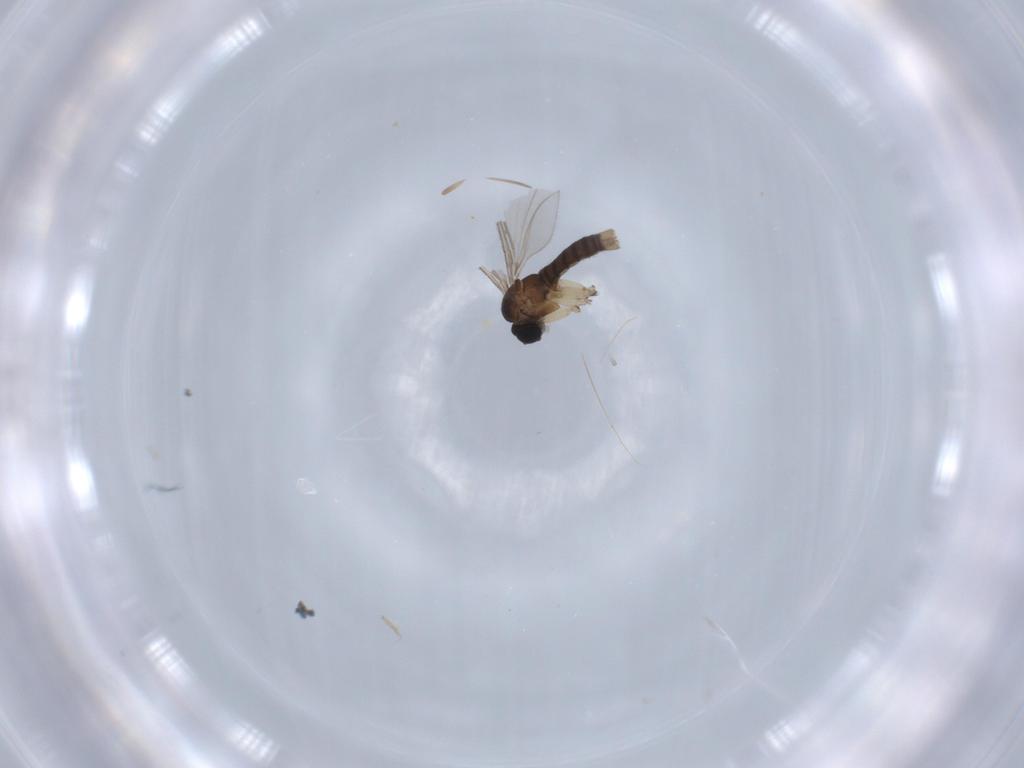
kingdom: Animalia
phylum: Arthropoda
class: Insecta
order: Diptera
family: Sciaridae
